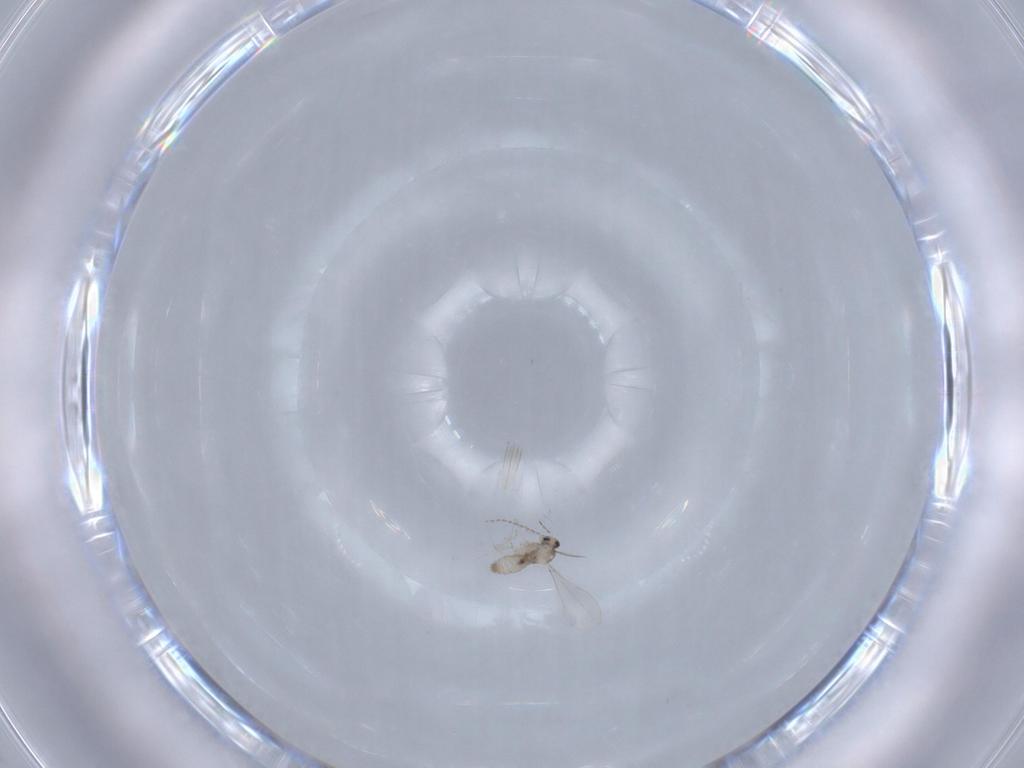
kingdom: Animalia
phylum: Arthropoda
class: Insecta
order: Diptera
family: Cecidomyiidae
